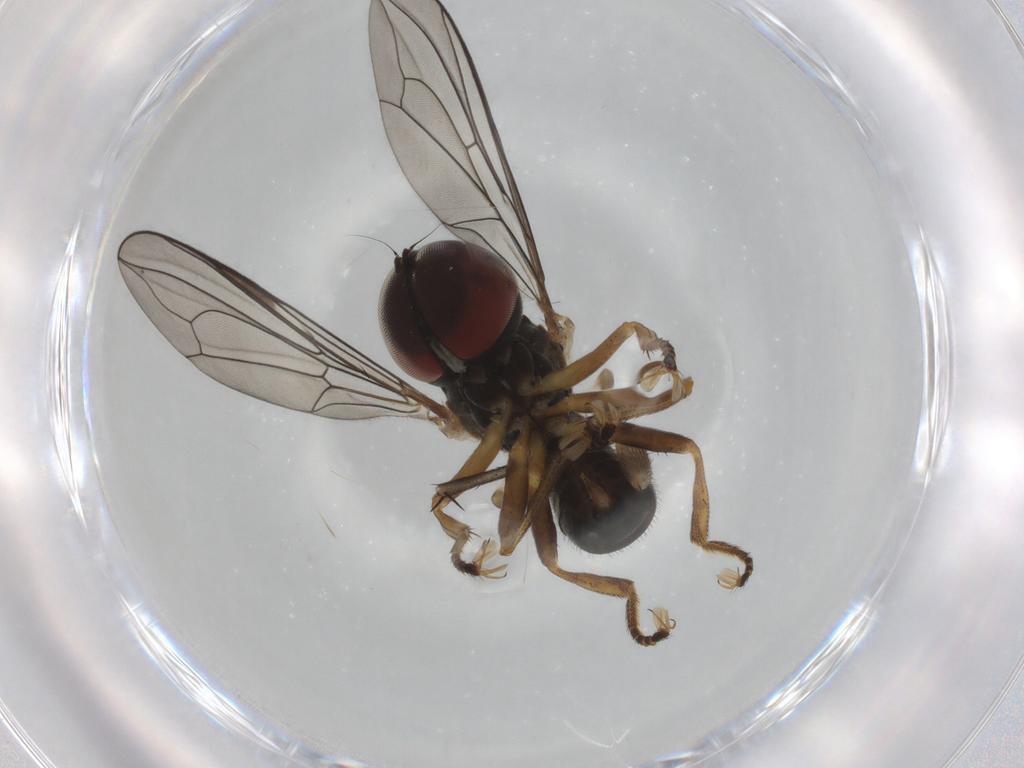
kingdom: Animalia
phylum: Arthropoda
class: Insecta
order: Diptera
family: Pipunculidae
